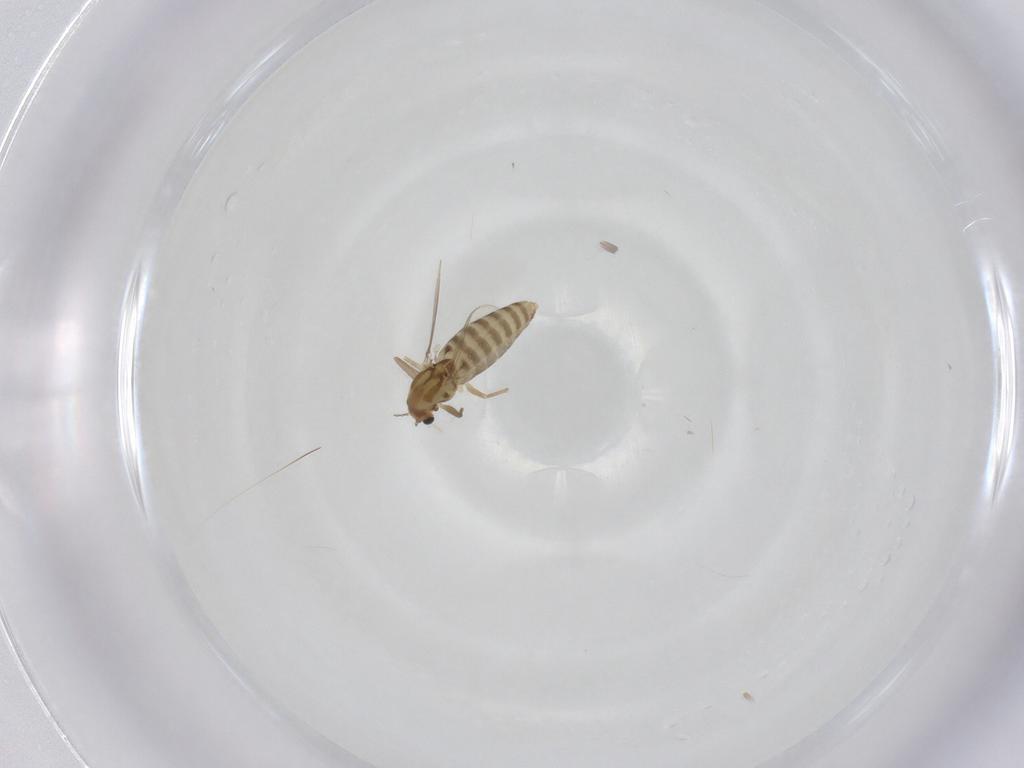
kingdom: Animalia
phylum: Arthropoda
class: Insecta
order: Diptera
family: Chironomidae
